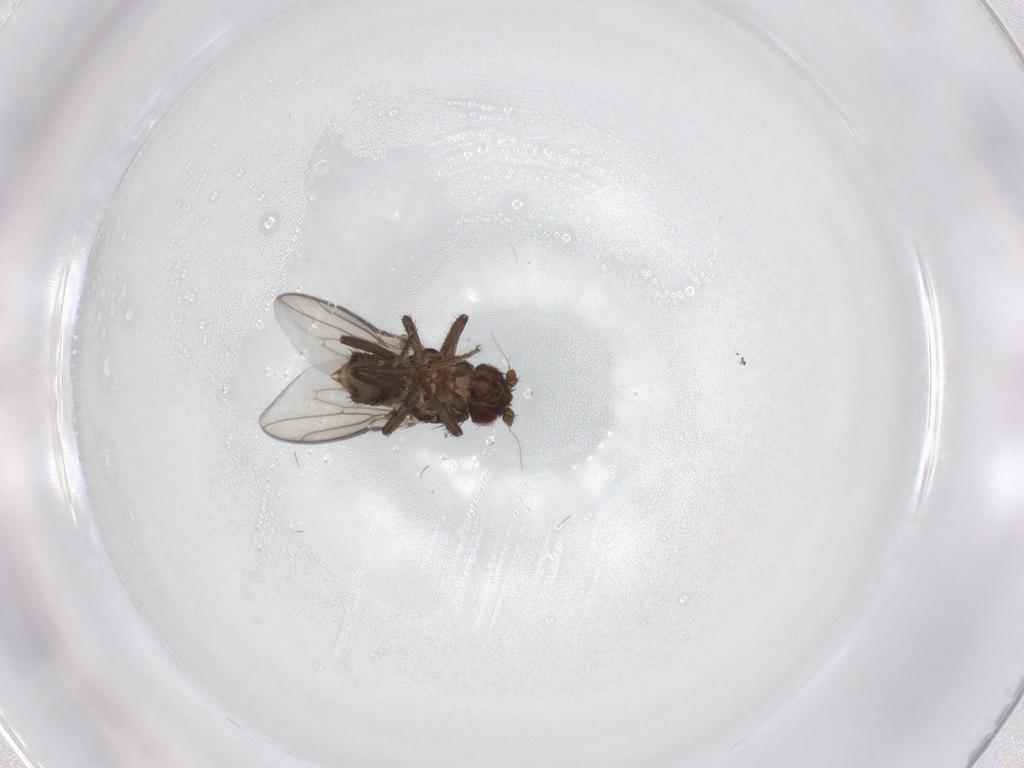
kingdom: Animalia
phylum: Arthropoda
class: Insecta
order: Diptera
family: Sphaeroceridae
